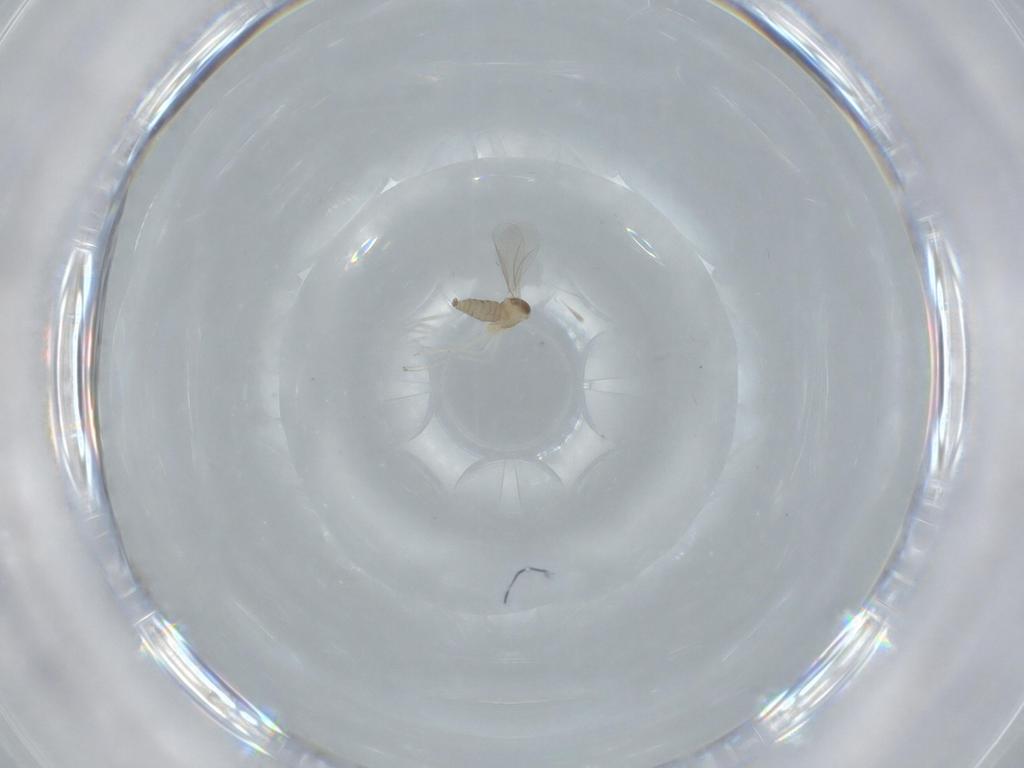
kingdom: Animalia
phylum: Arthropoda
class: Insecta
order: Diptera
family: Cecidomyiidae
